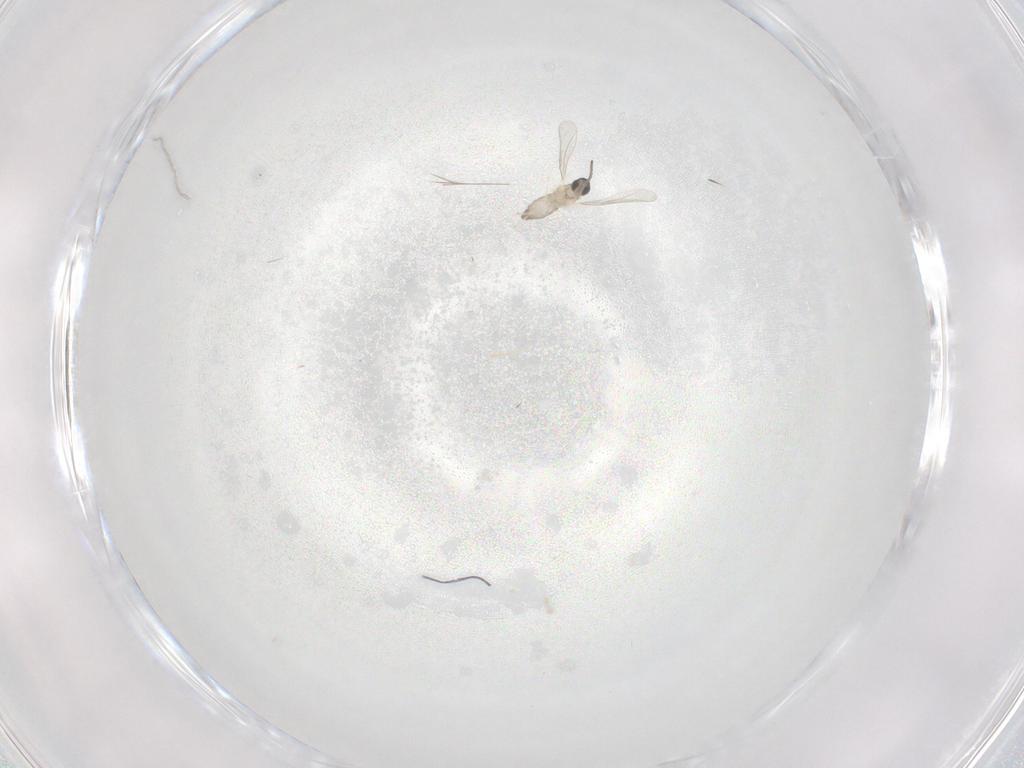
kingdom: Animalia
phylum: Arthropoda
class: Insecta
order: Diptera
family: Cecidomyiidae
